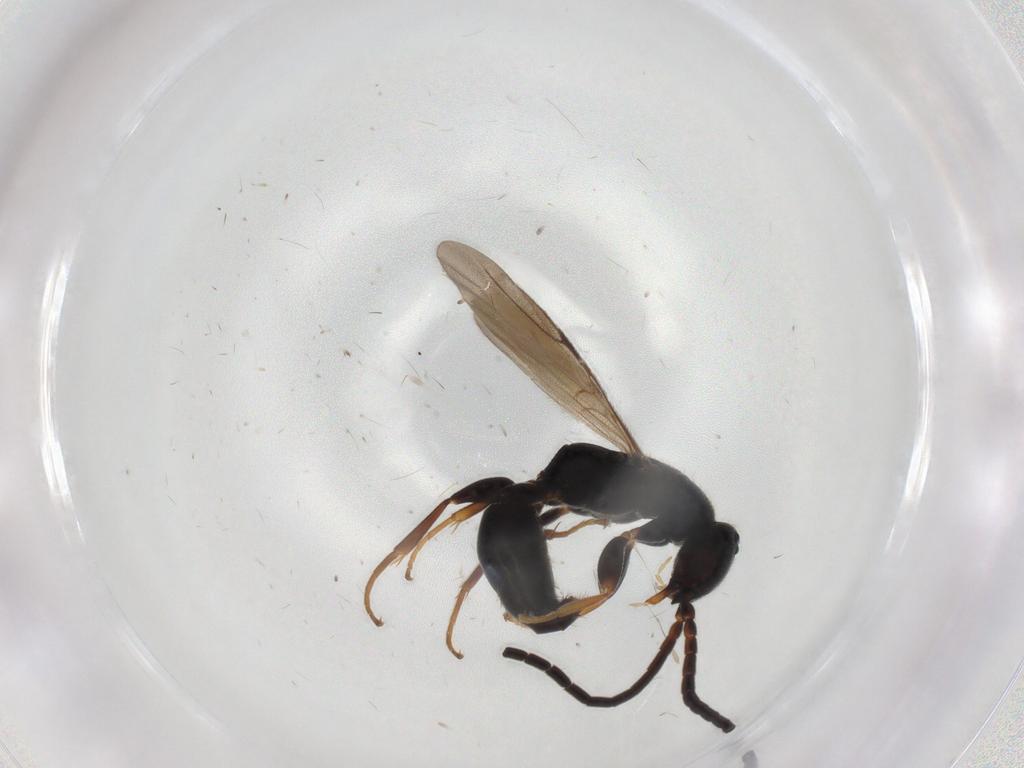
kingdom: Animalia
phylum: Arthropoda
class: Insecta
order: Hymenoptera
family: Bethylidae
